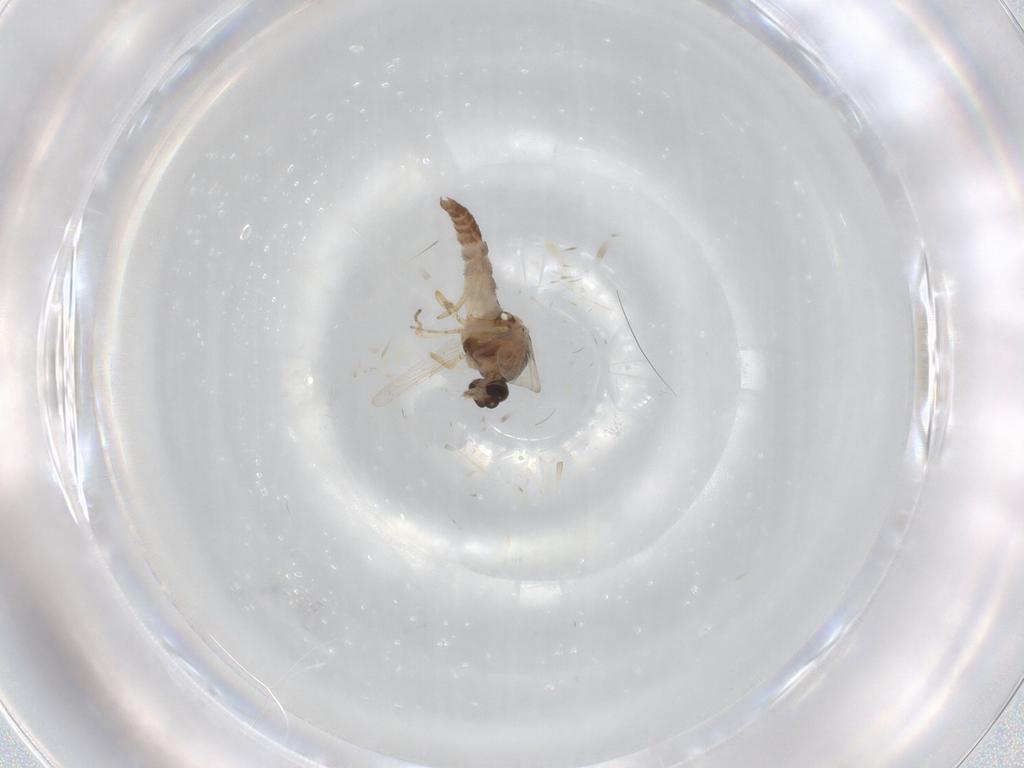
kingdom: Animalia
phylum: Arthropoda
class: Insecta
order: Diptera
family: Ceratopogonidae
